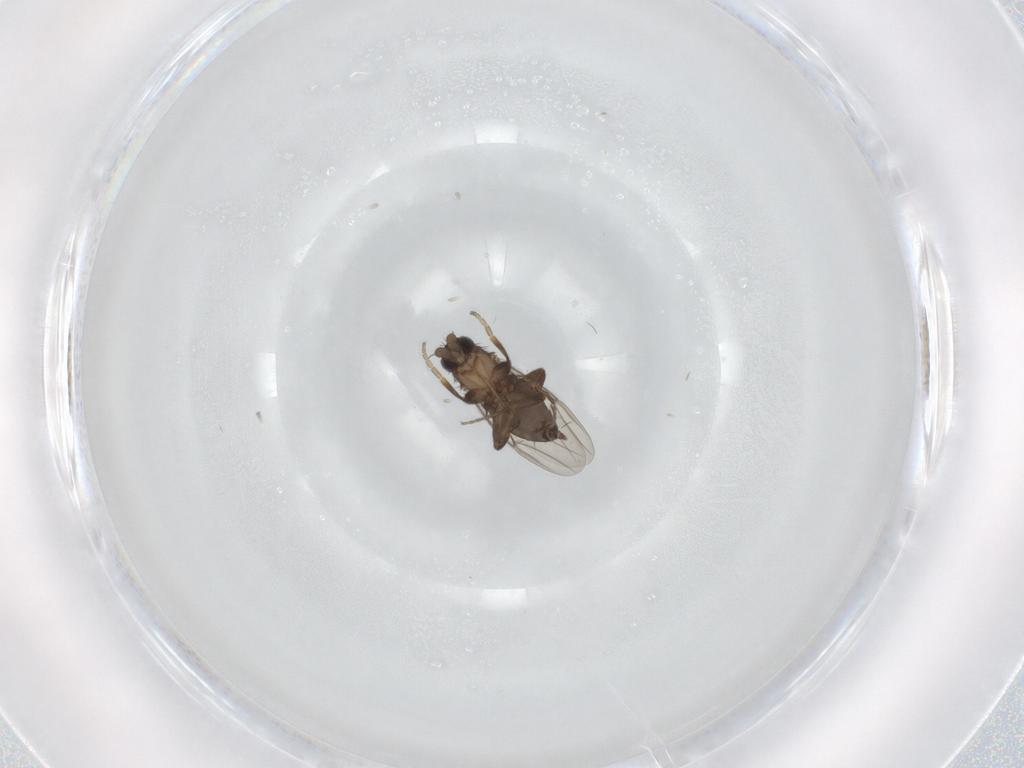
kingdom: Animalia
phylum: Arthropoda
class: Insecta
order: Diptera
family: Phoridae
